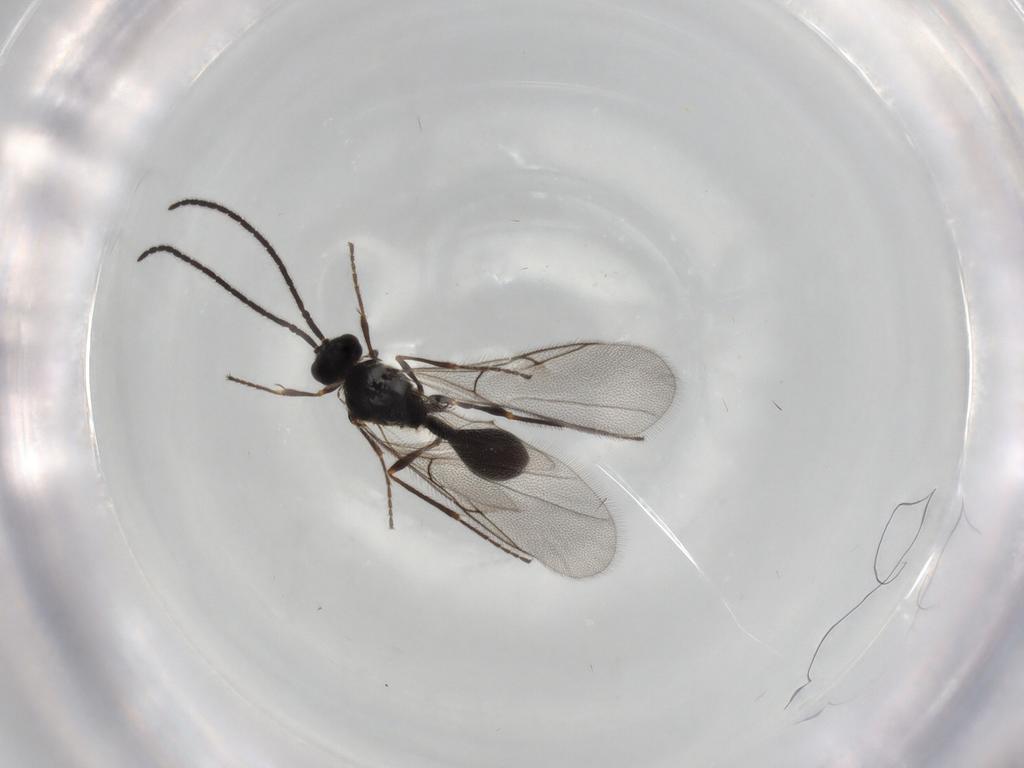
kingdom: Animalia
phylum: Arthropoda
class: Insecta
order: Hymenoptera
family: Diapriidae
